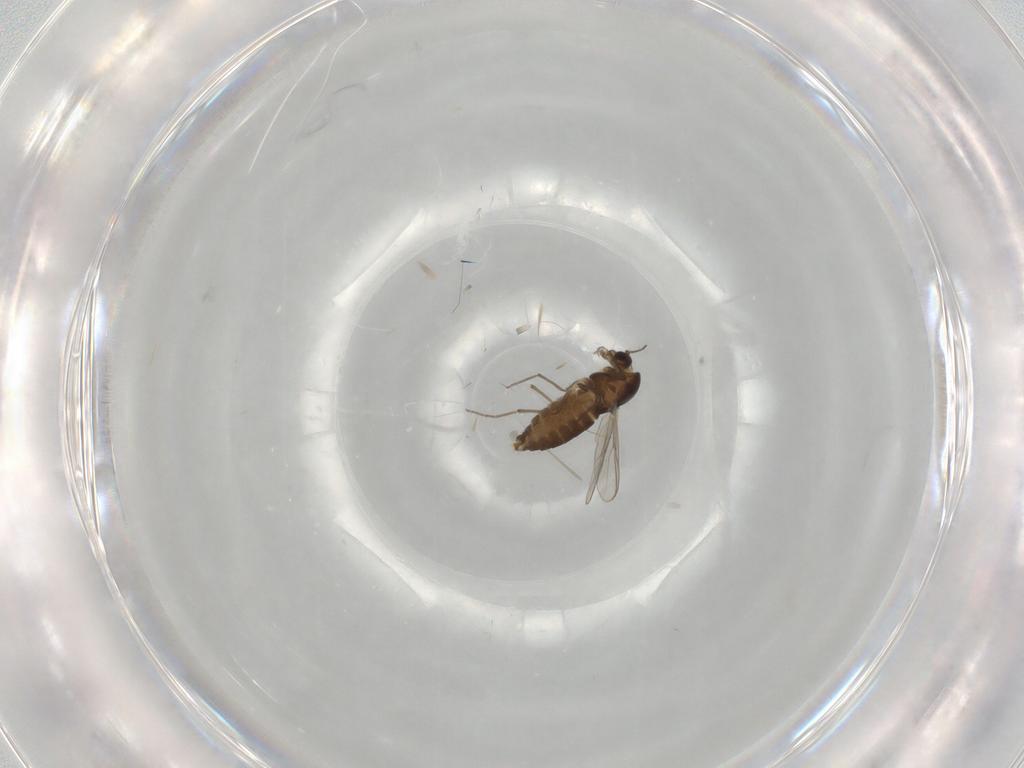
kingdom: Animalia
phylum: Arthropoda
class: Insecta
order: Diptera
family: Chironomidae
